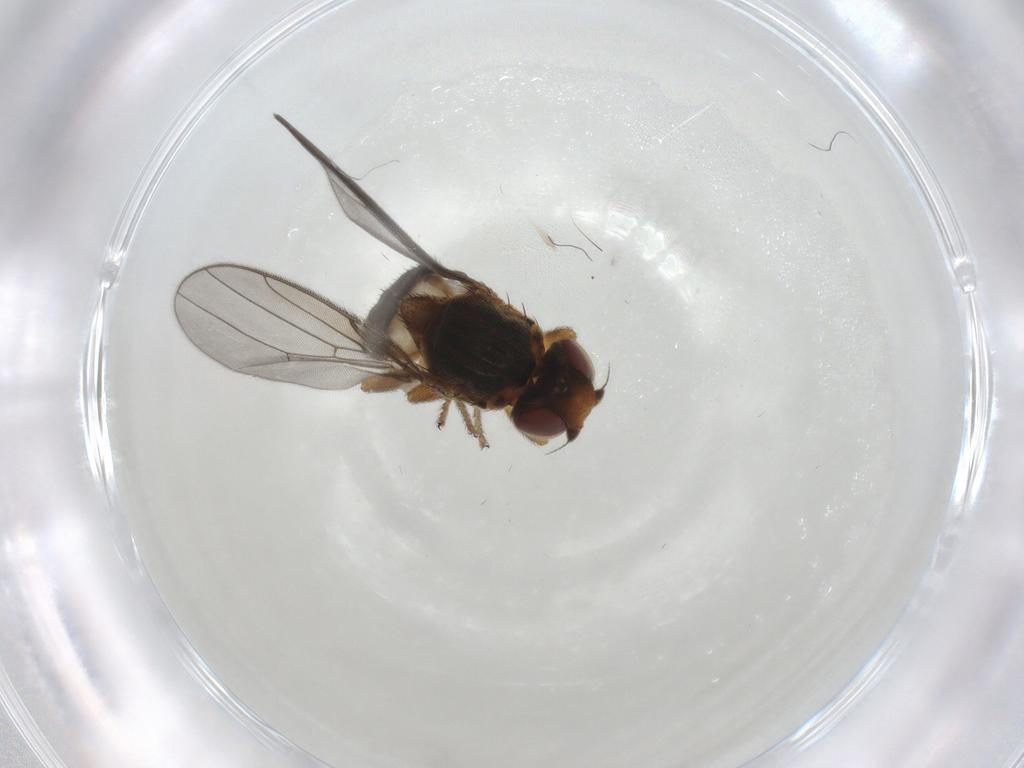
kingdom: Animalia
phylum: Arthropoda
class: Insecta
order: Diptera
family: Chloropidae
